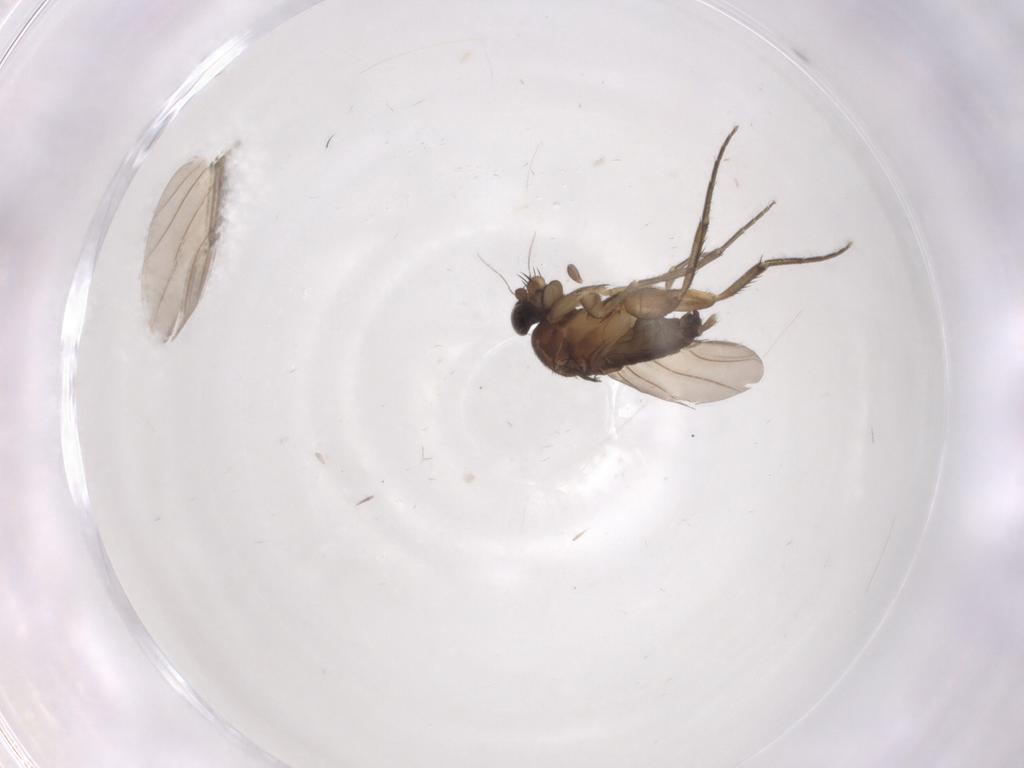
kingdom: Animalia
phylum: Arthropoda
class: Insecta
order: Diptera
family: Phoridae
